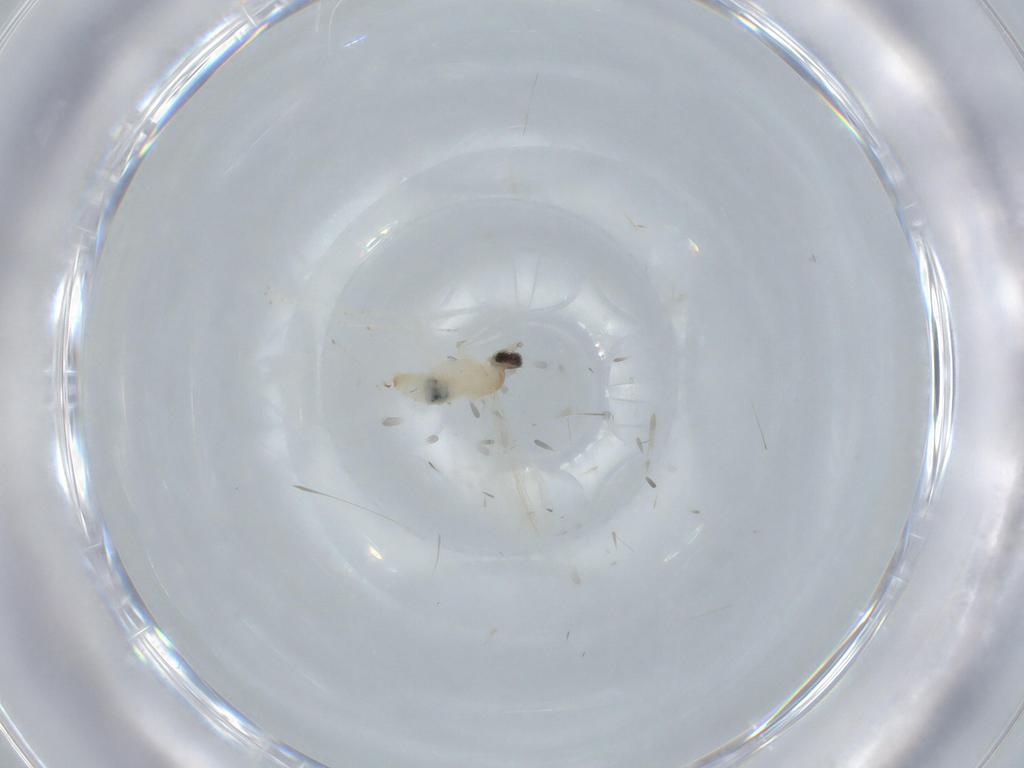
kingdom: Animalia
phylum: Arthropoda
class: Insecta
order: Diptera
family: Cecidomyiidae
